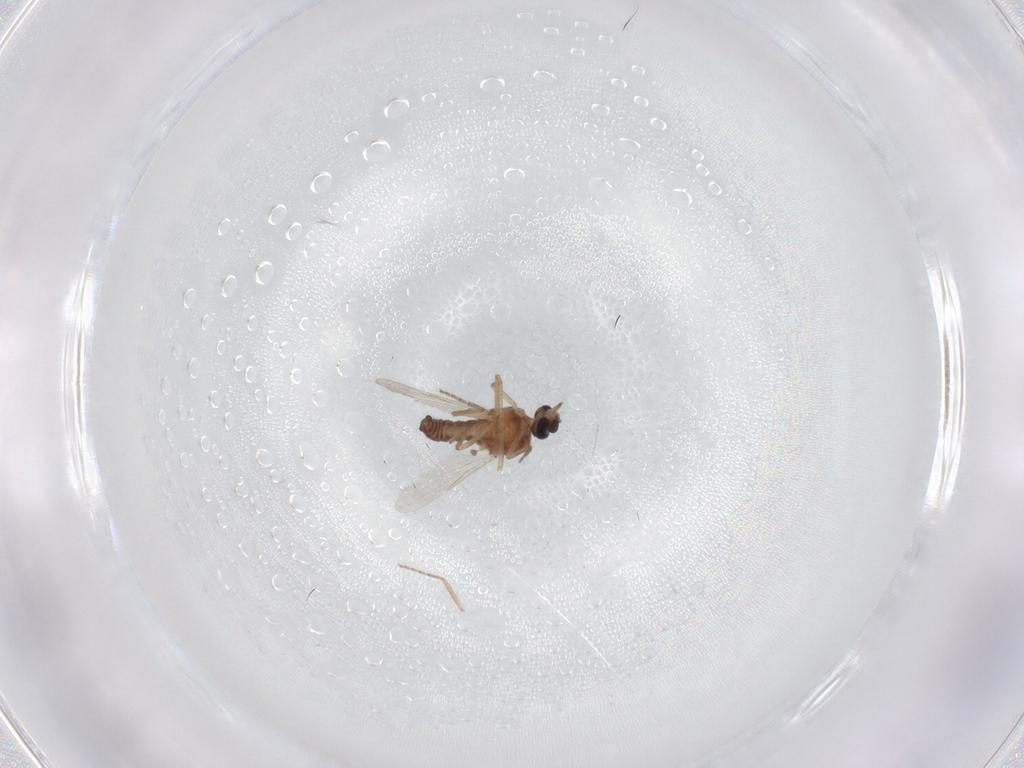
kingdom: Animalia
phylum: Arthropoda
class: Insecta
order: Diptera
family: Ceratopogonidae
